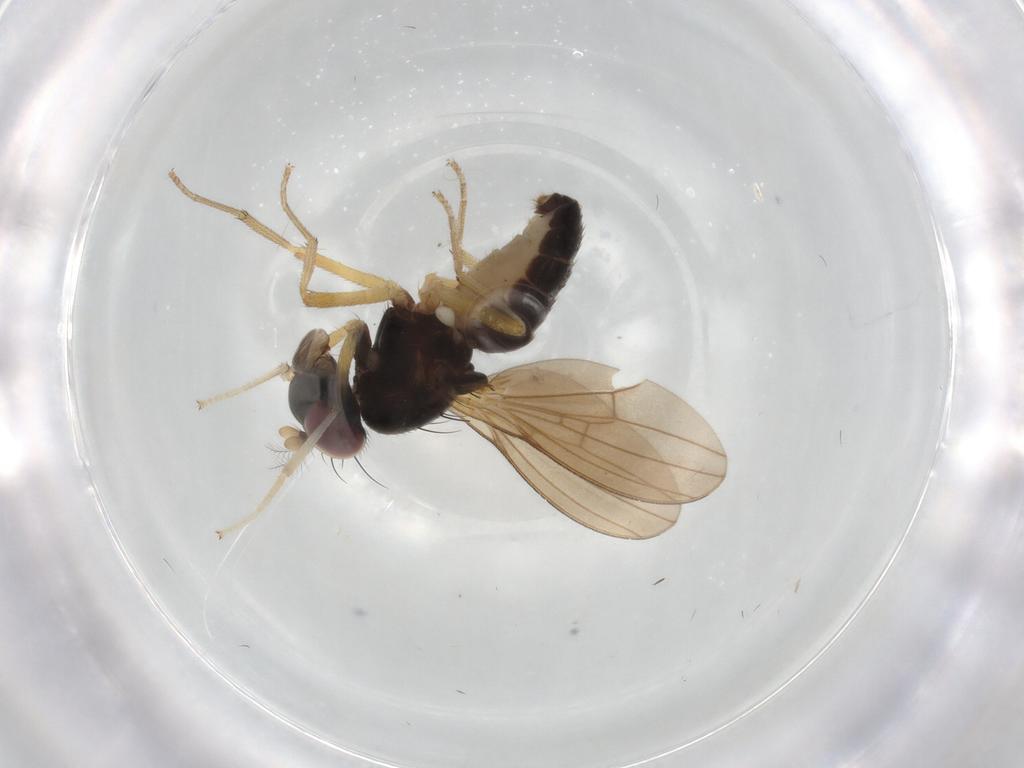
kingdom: Animalia
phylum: Arthropoda
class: Insecta
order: Diptera
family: Lauxaniidae
